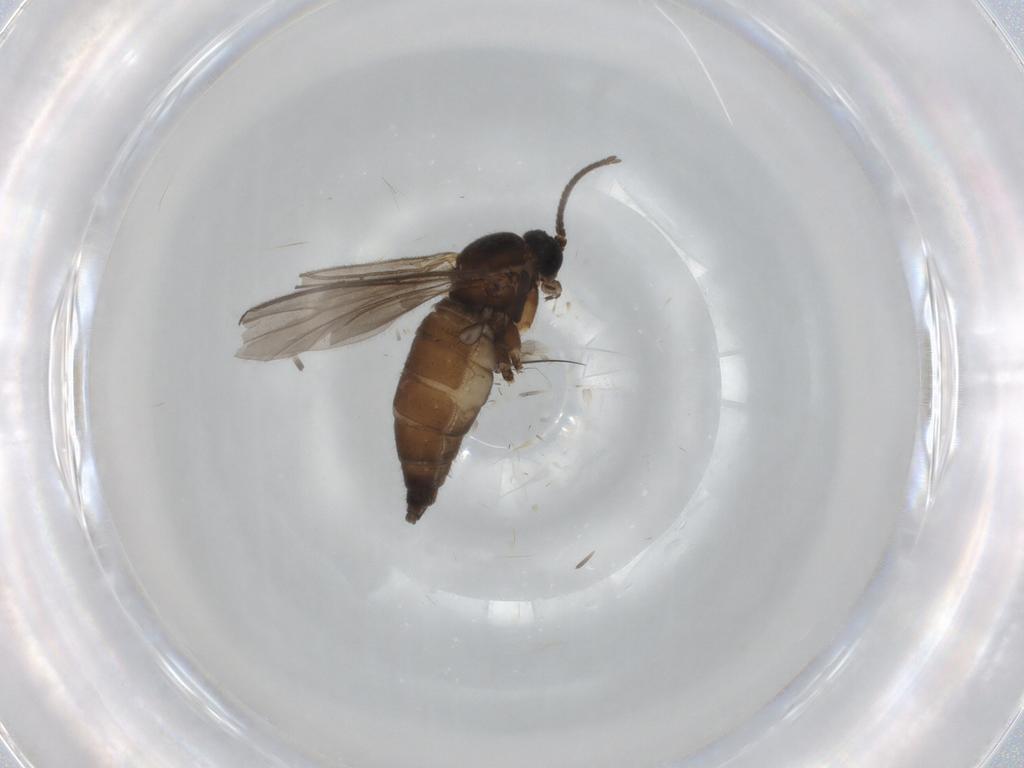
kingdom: Animalia
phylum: Arthropoda
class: Insecta
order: Diptera
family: Sciaridae
